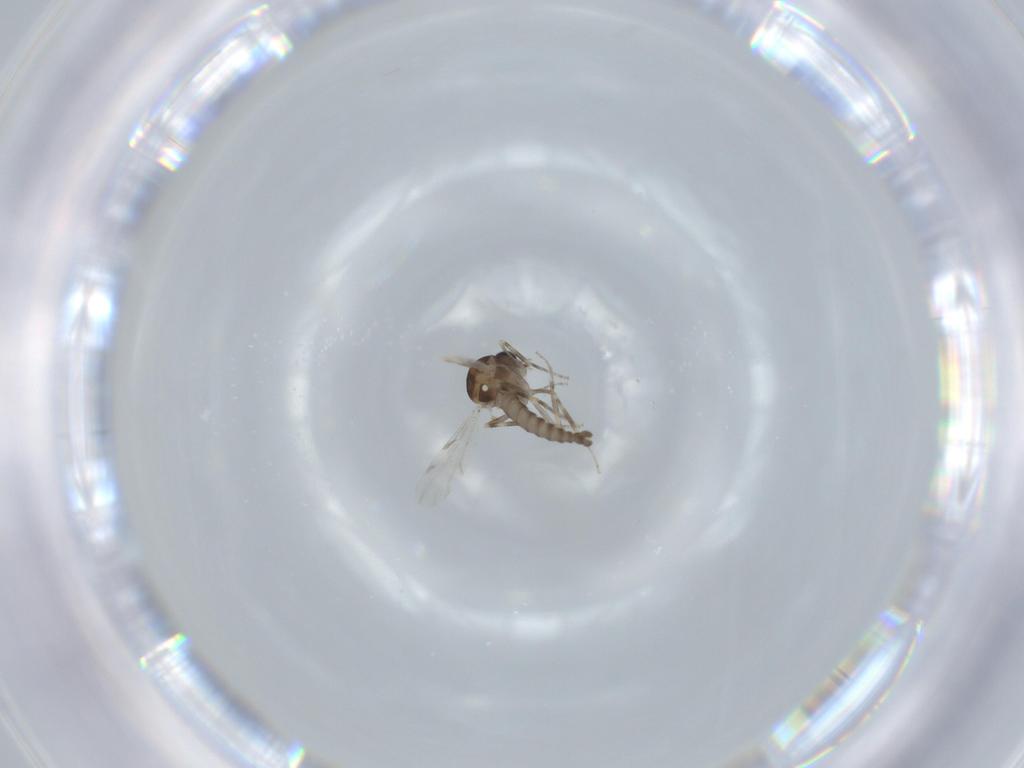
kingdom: Animalia
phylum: Arthropoda
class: Insecta
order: Diptera
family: Ceratopogonidae
